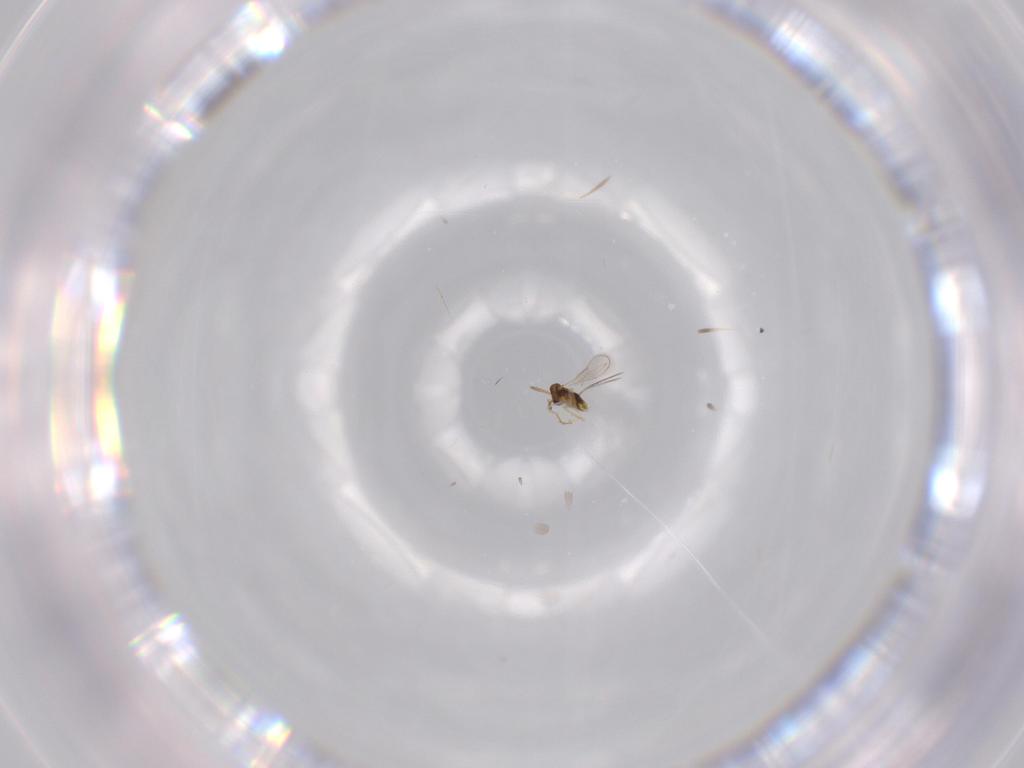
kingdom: Animalia
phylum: Arthropoda
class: Insecta
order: Hymenoptera
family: Aphelinidae
